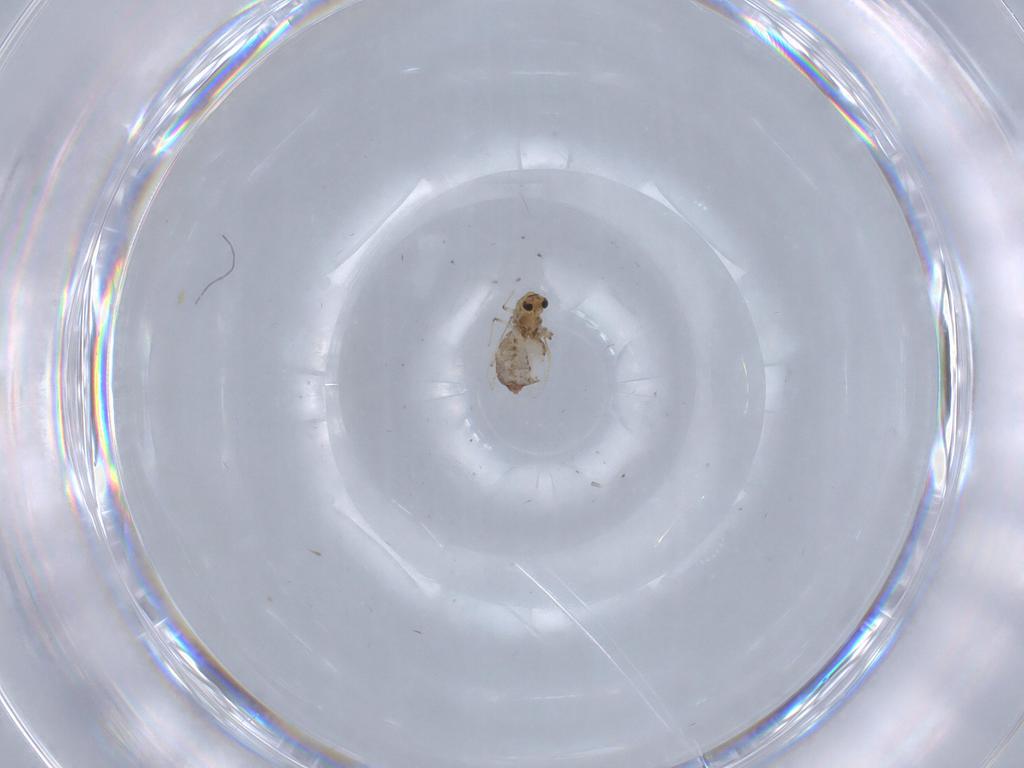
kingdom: Animalia
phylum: Arthropoda
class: Insecta
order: Diptera
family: Chironomidae
